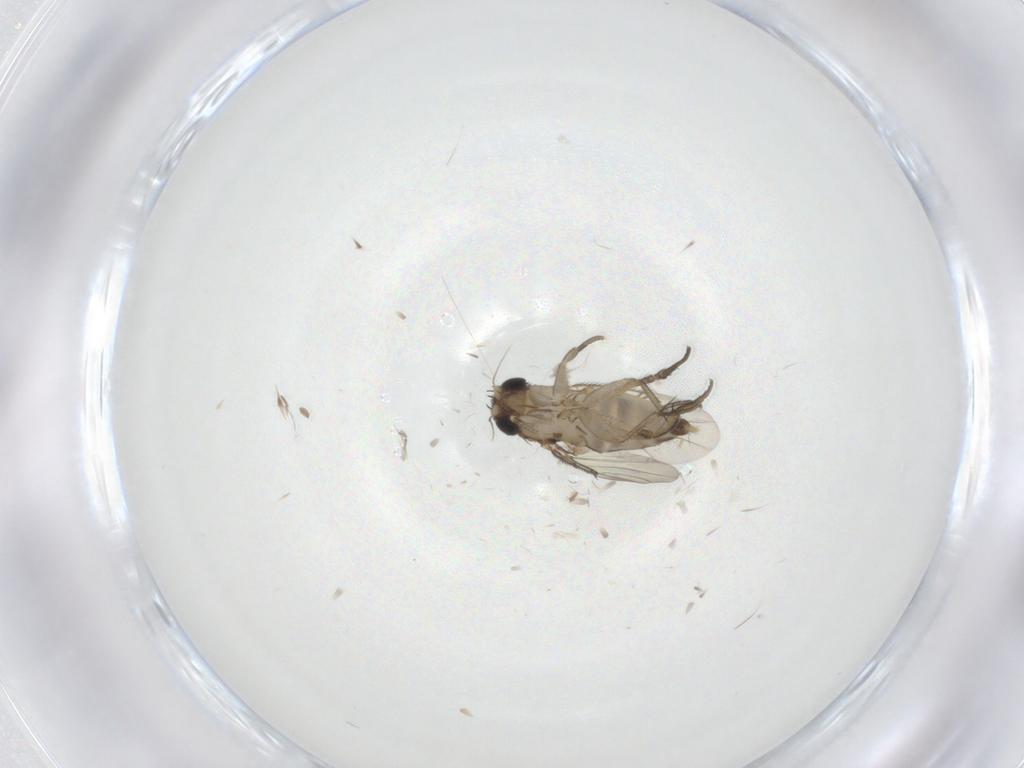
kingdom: Animalia
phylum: Arthropoda
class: Insecta
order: Diptera
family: Phoridae
